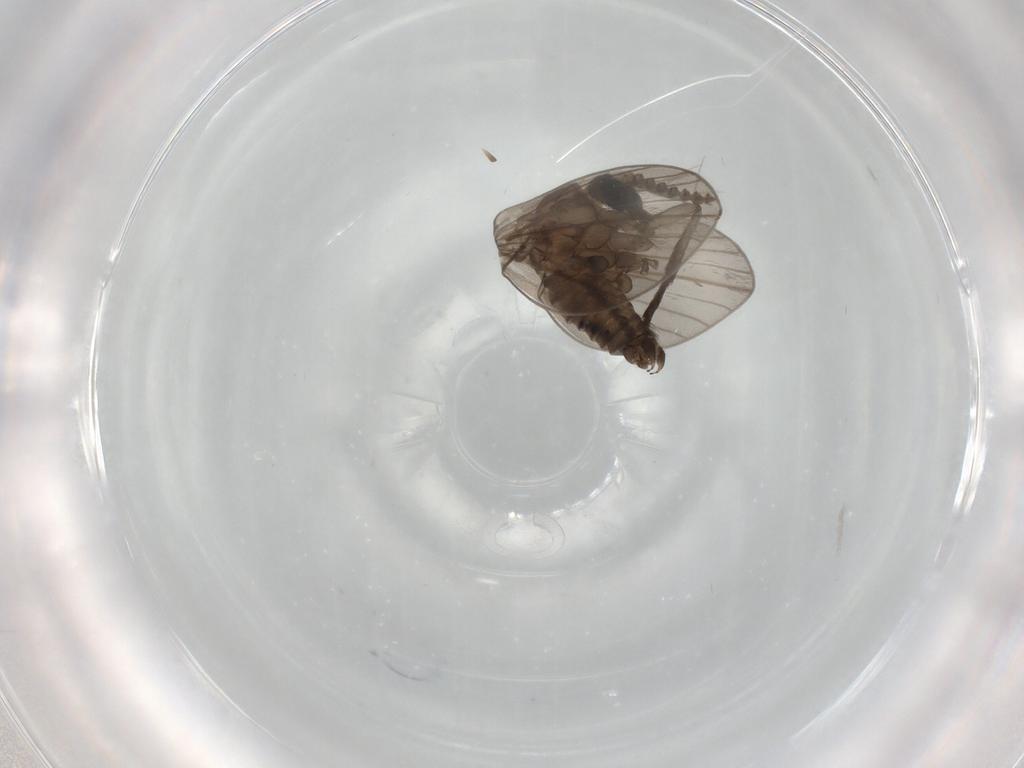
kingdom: Animalia
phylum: Arthropoda
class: Insecta
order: Diptera
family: Psychodidae
